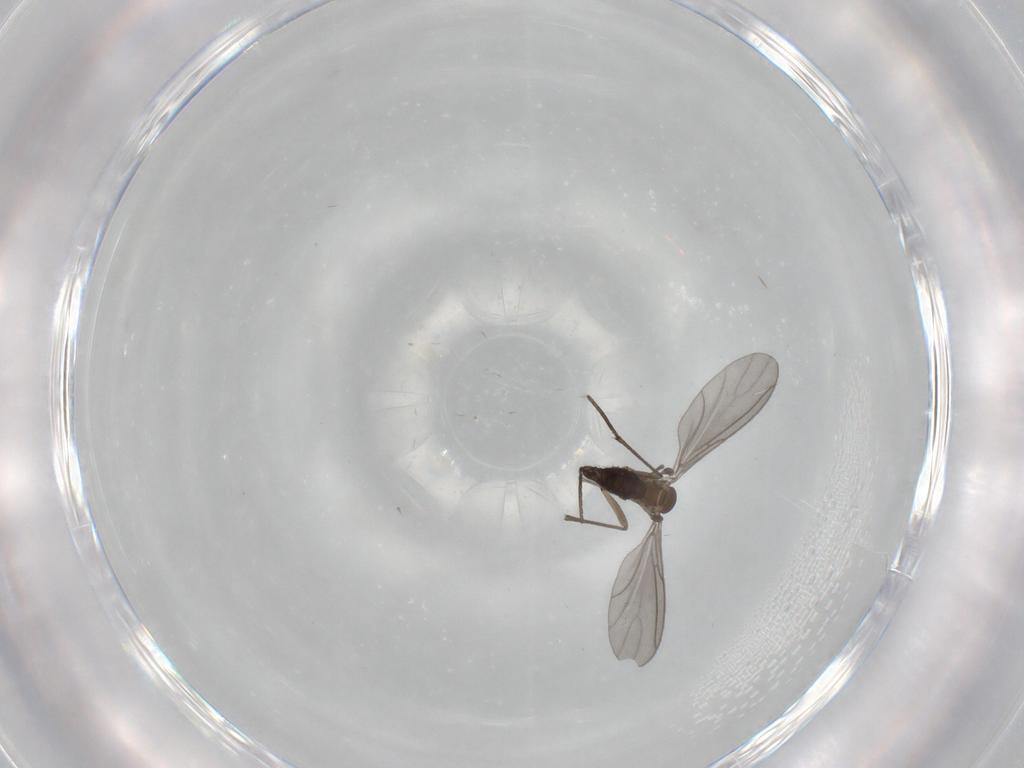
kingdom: Animalia
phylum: Arthropoda
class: Insecta
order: Diptera
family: Sciaridae
